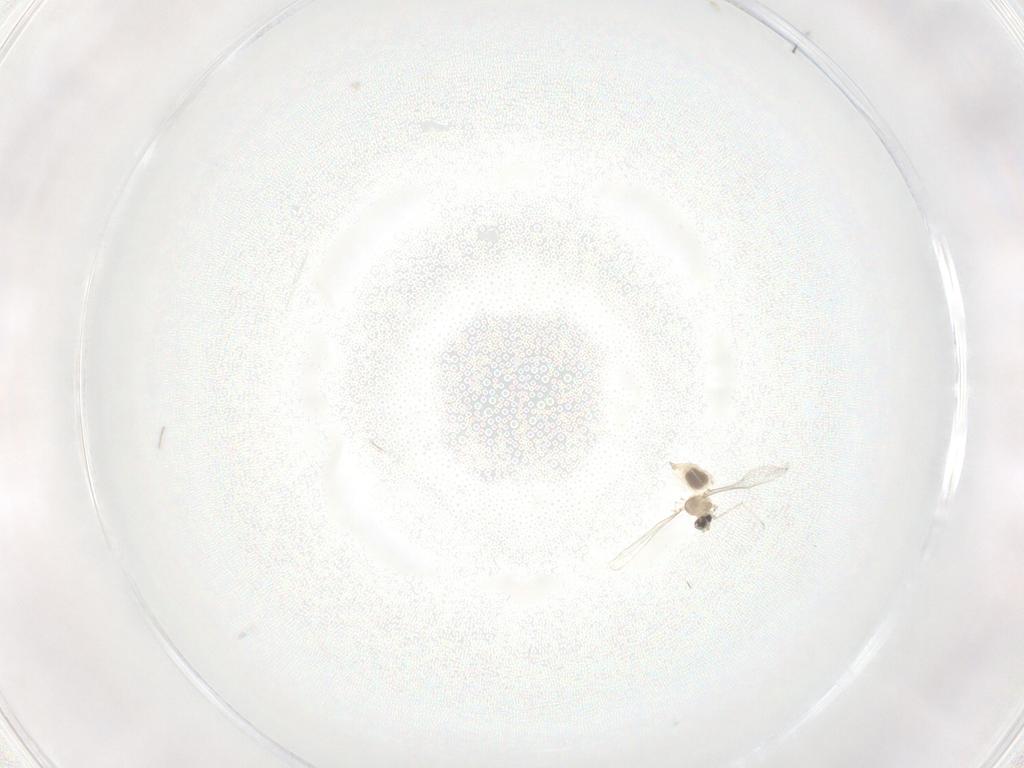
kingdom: Animalia
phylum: Arthropoda
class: Insecta
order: Diptera
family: Cecidomyiidae
